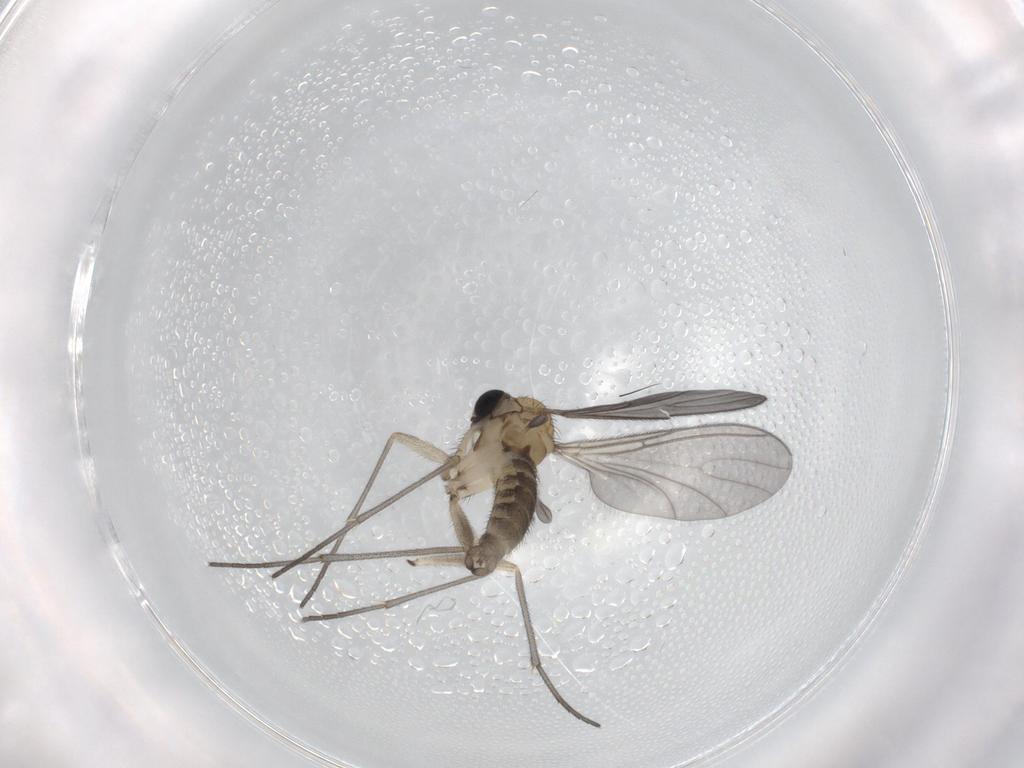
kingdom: Animalia
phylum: Arthropoda
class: Insecta
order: Diptera
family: Sciaridae
